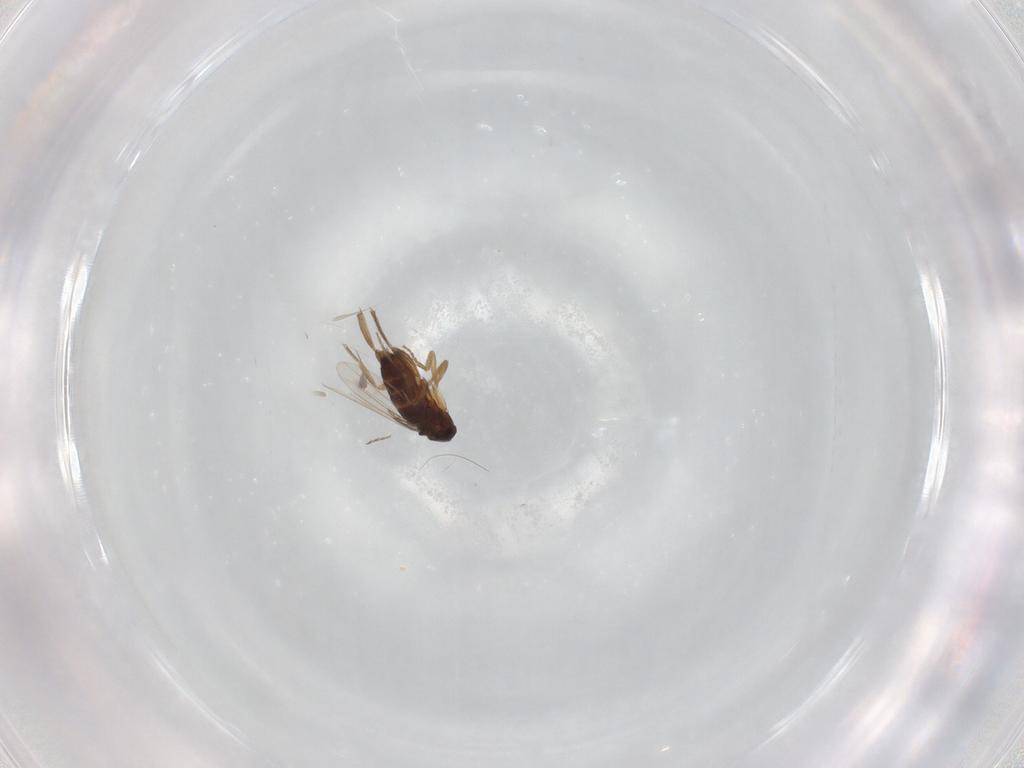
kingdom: Animalia
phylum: Arthropoda
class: Insecta
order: Diptera
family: Phoridae
